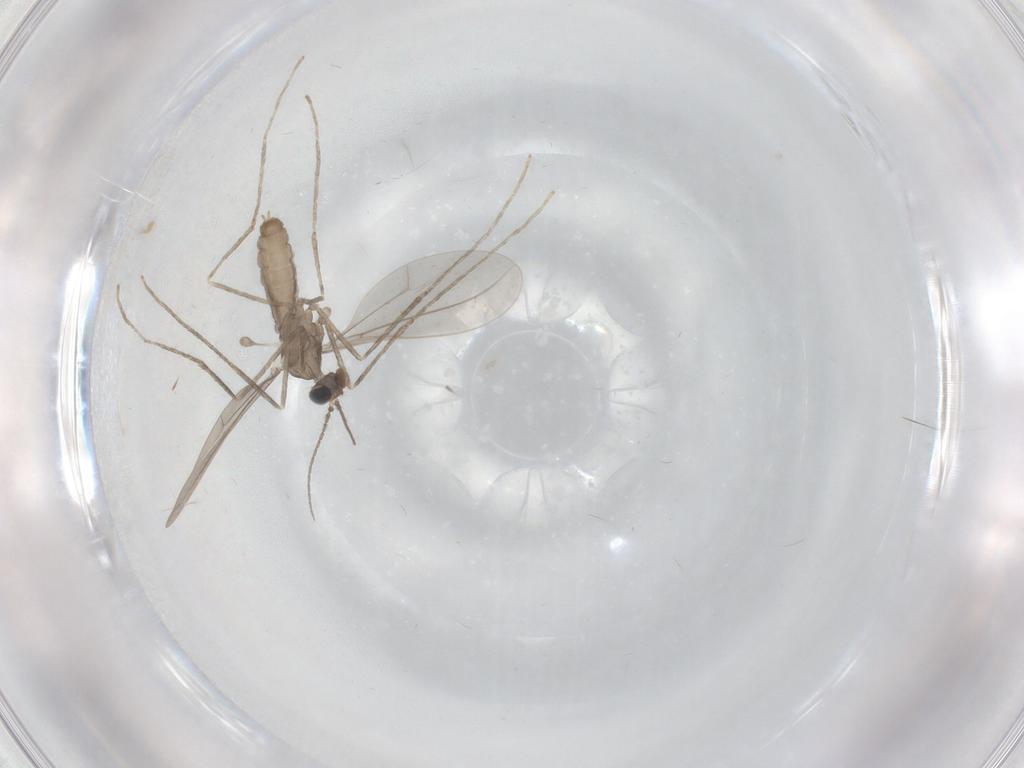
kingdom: Animalia
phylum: Arthropoda
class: Insecta
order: Diptera
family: Cecidomyiidae
